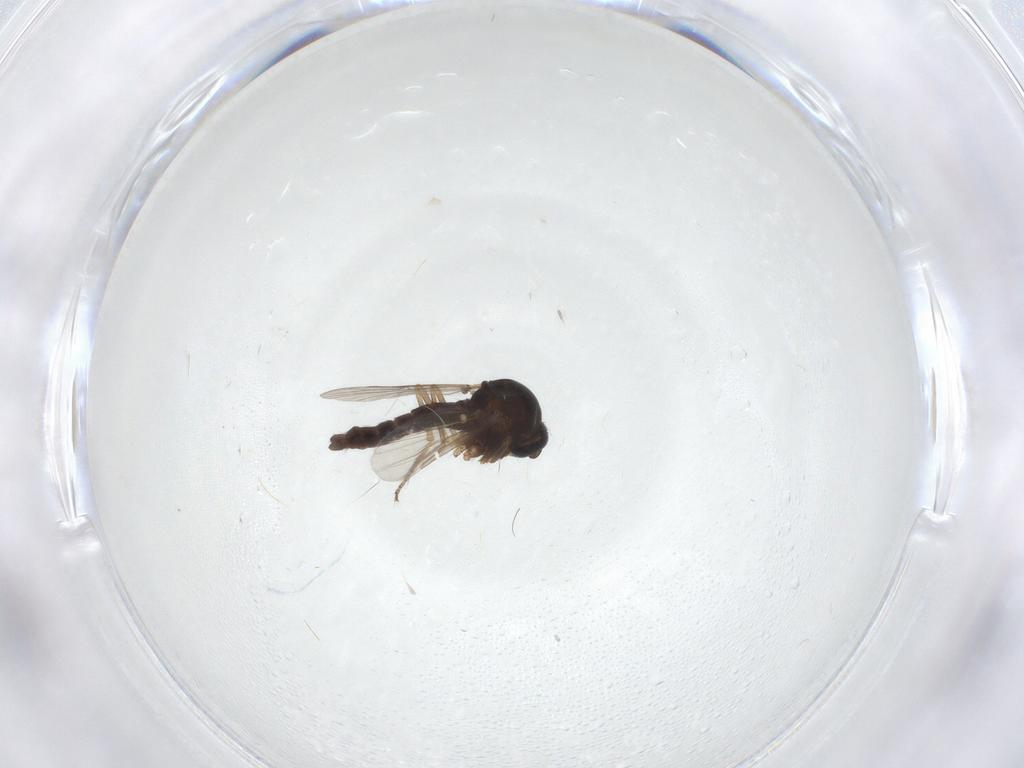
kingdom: Animalia
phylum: Arthropoda
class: Insecta
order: Diptera
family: Ceratopogonidae
